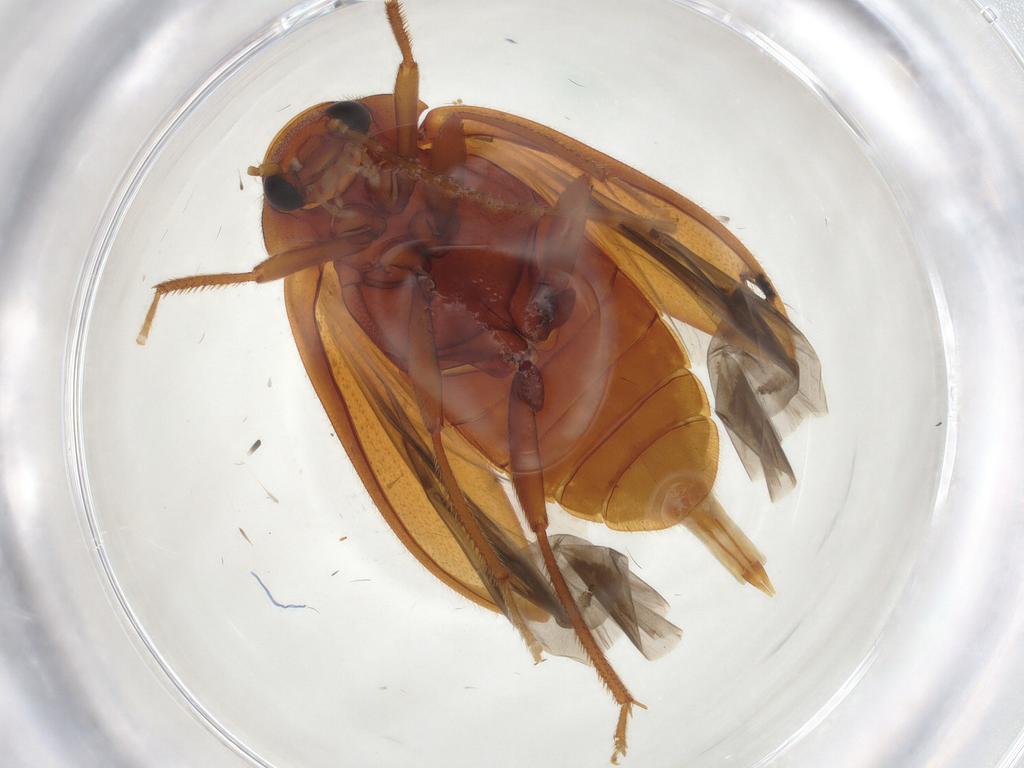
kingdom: Animalia
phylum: Arthropoda
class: Insecta
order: Coleoptera
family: Ptilodactylidae
